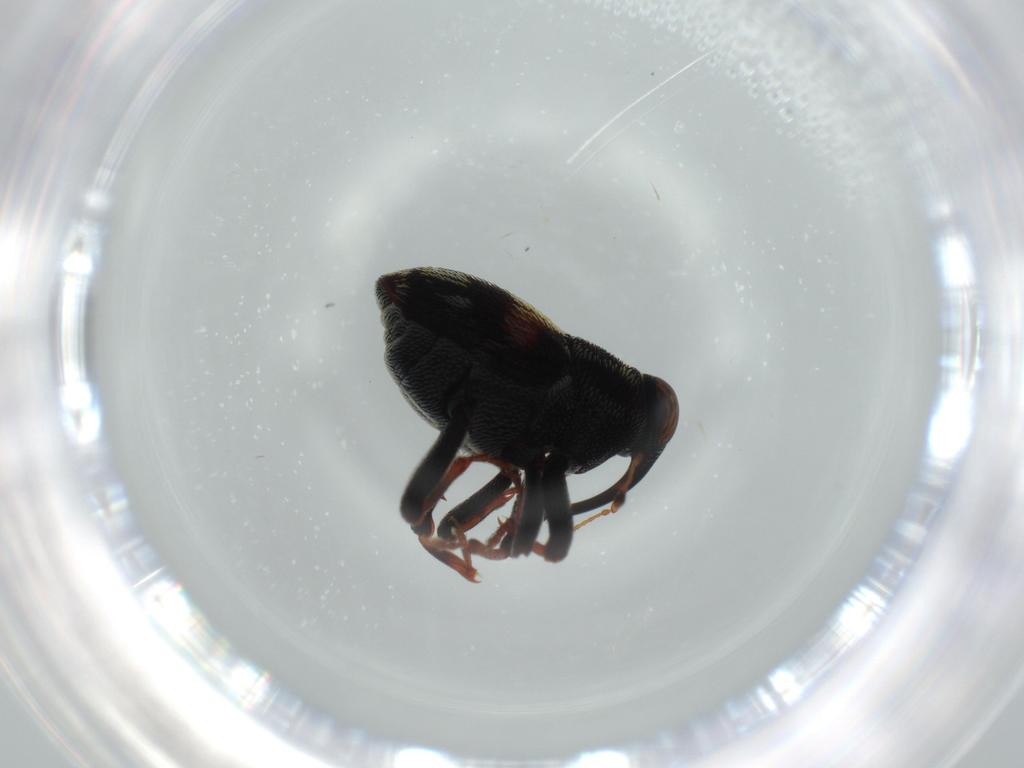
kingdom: Animalia
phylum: Arthropoda
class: Insecta
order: Coleoptera
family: Curculionidae
